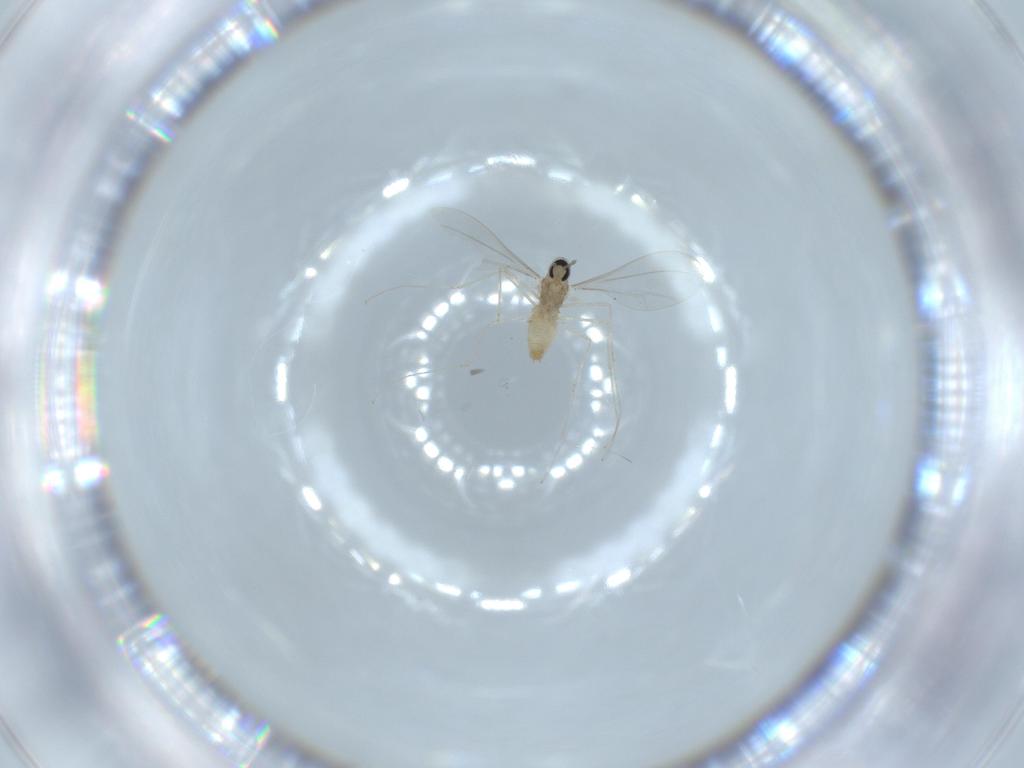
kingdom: Animalia
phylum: Arthropoda
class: Insecta
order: Diptera
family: Cecidomyiidae
